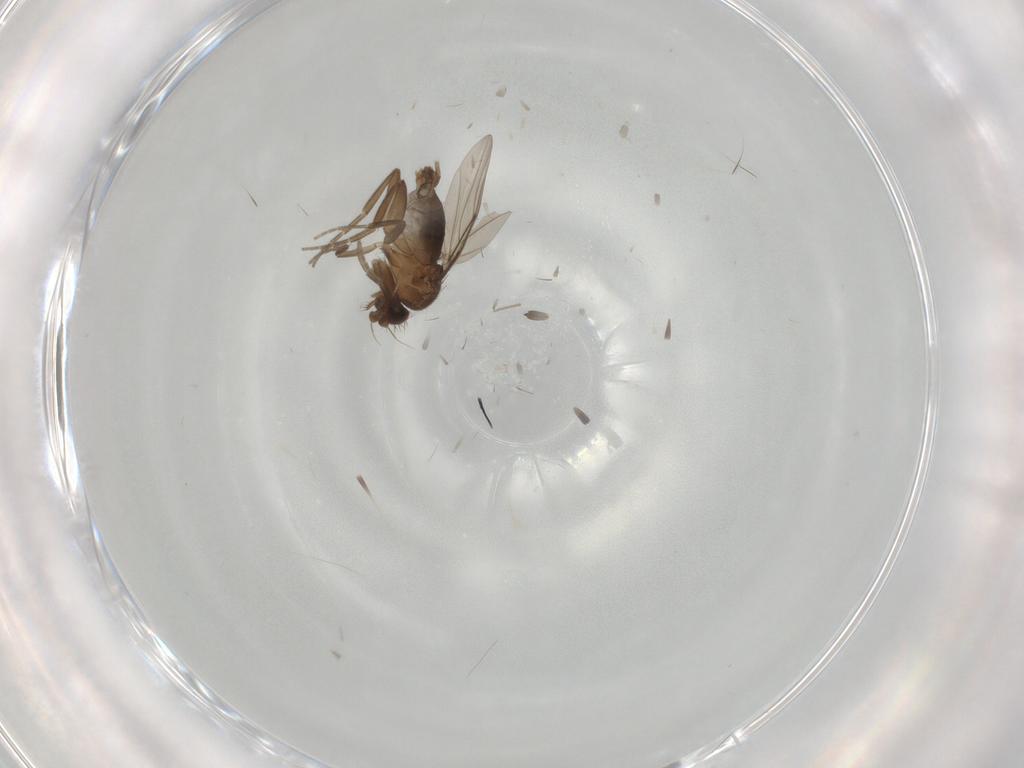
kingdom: Animalia
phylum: Arthropoda
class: Insecta
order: Diptera
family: Phoridae
